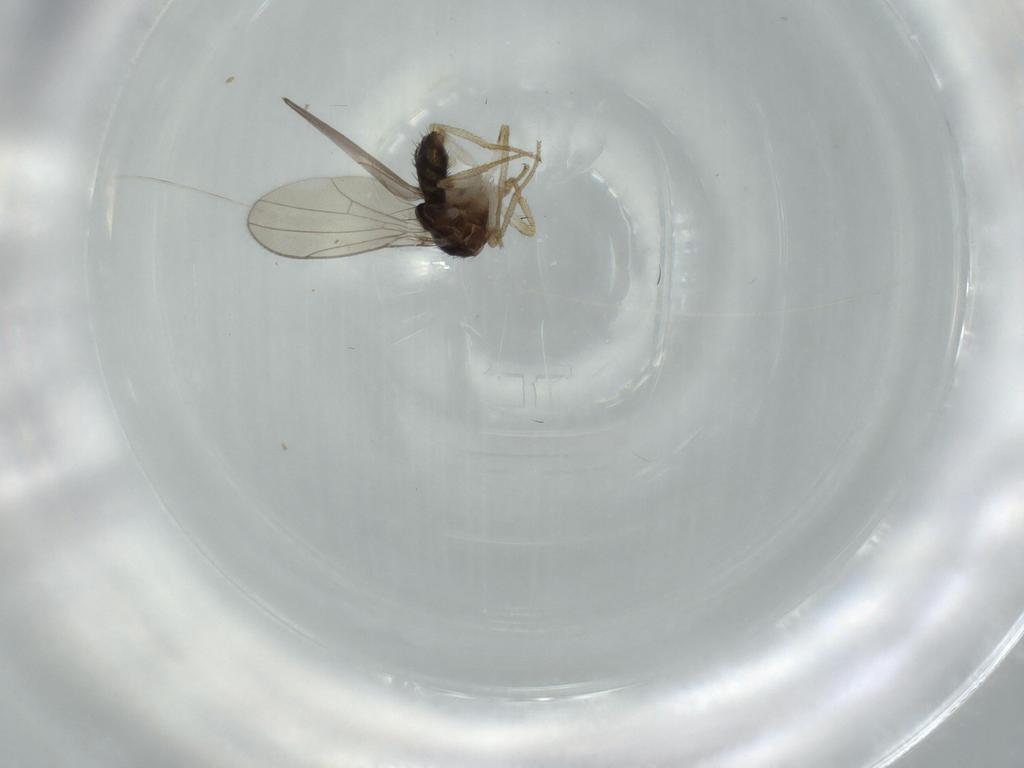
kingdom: Animalia
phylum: Arthropoda
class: Insecta
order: Diptera
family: Drosophilidae
